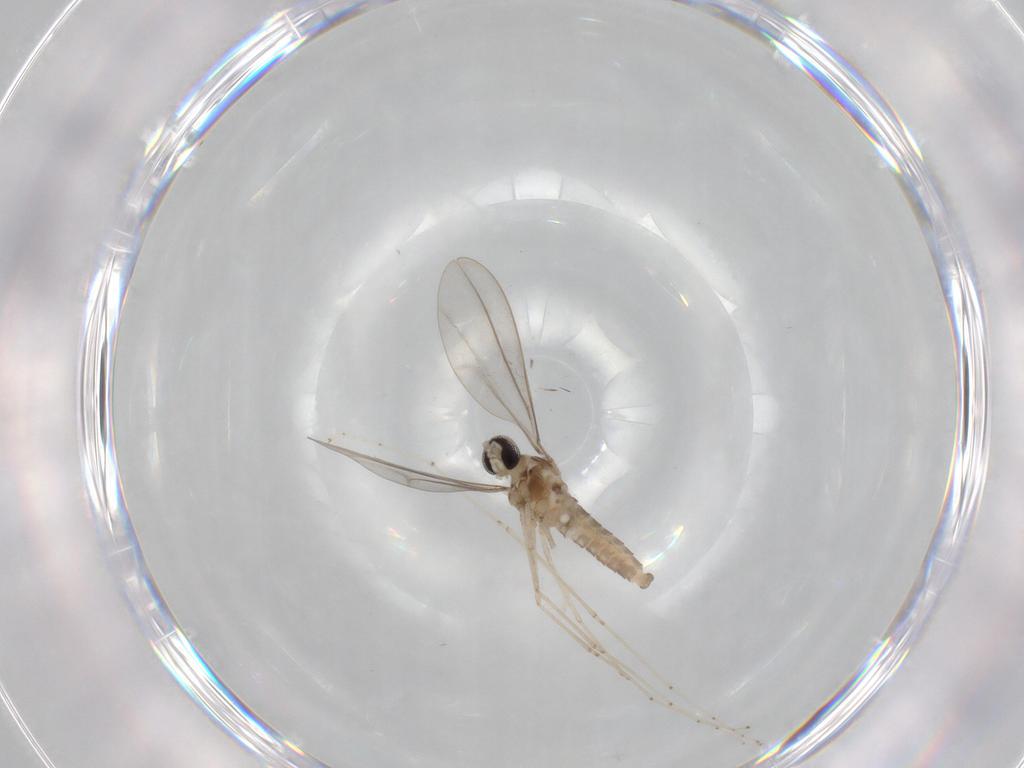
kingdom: Animalia
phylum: Arthropoda
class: Insecta
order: Diptera
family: Cecidomyiidae
